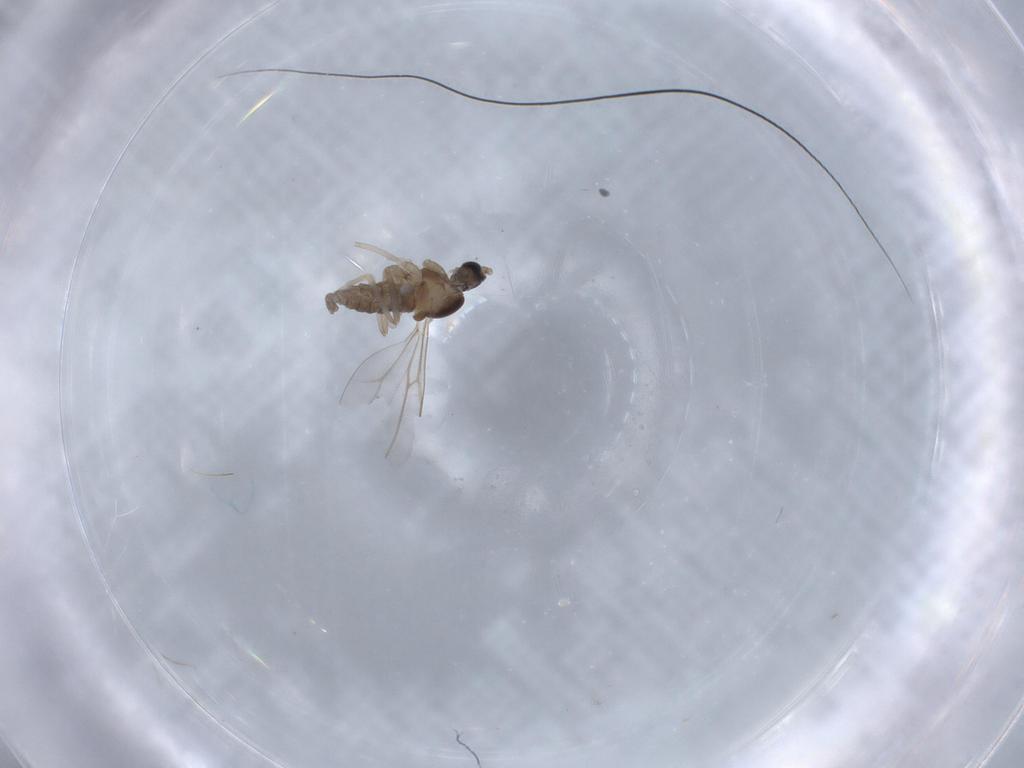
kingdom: Animalia
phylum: Arthropoda
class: Insecta
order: Diptera
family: Cecidomyiidae
